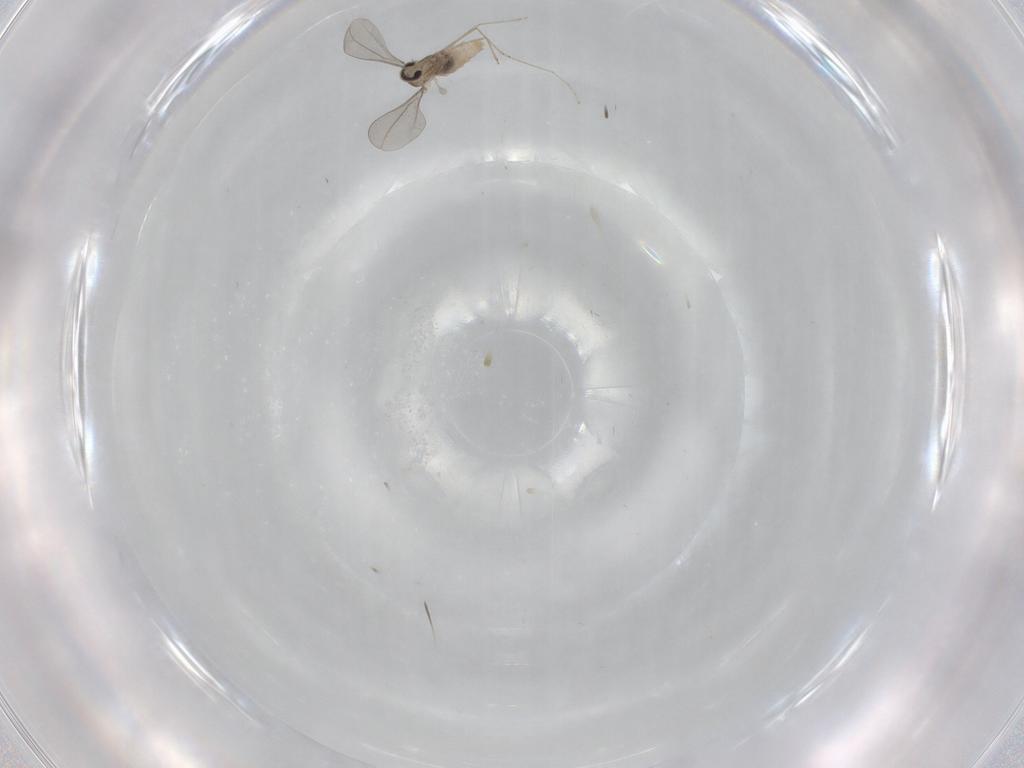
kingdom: Animalia
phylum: Arthropoda
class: Insecta
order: Diptera
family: Cecidomyiidae
